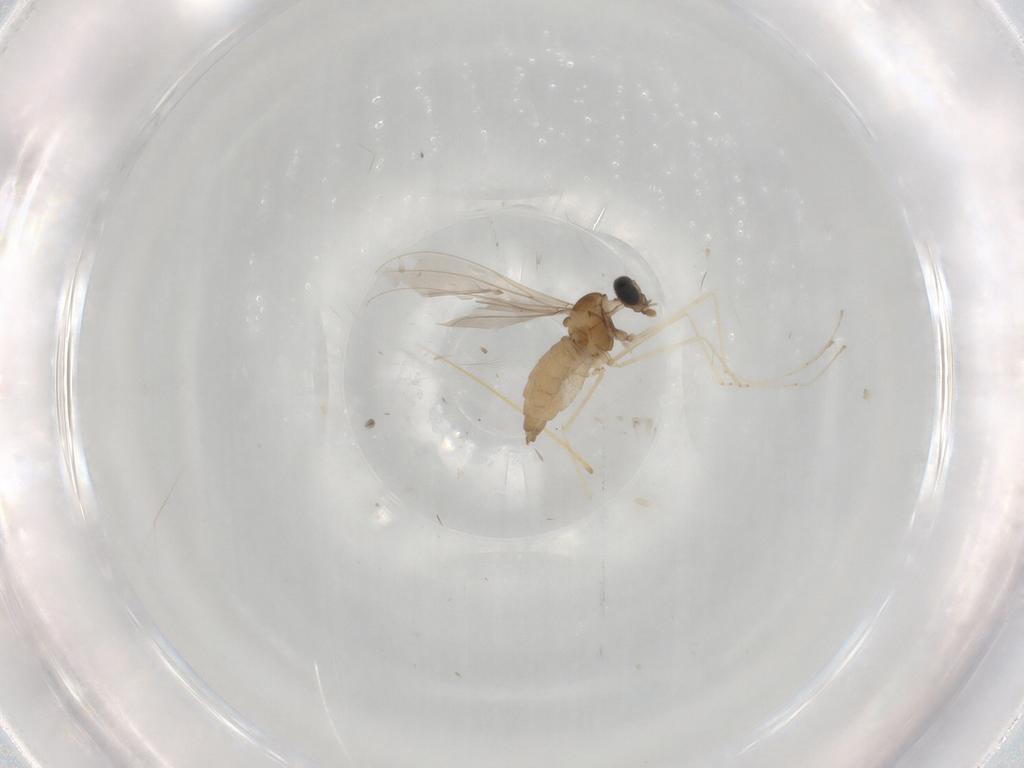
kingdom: Animalia
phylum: Arthropoda
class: Insecta
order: Diptera
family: Cecidomyiidae
